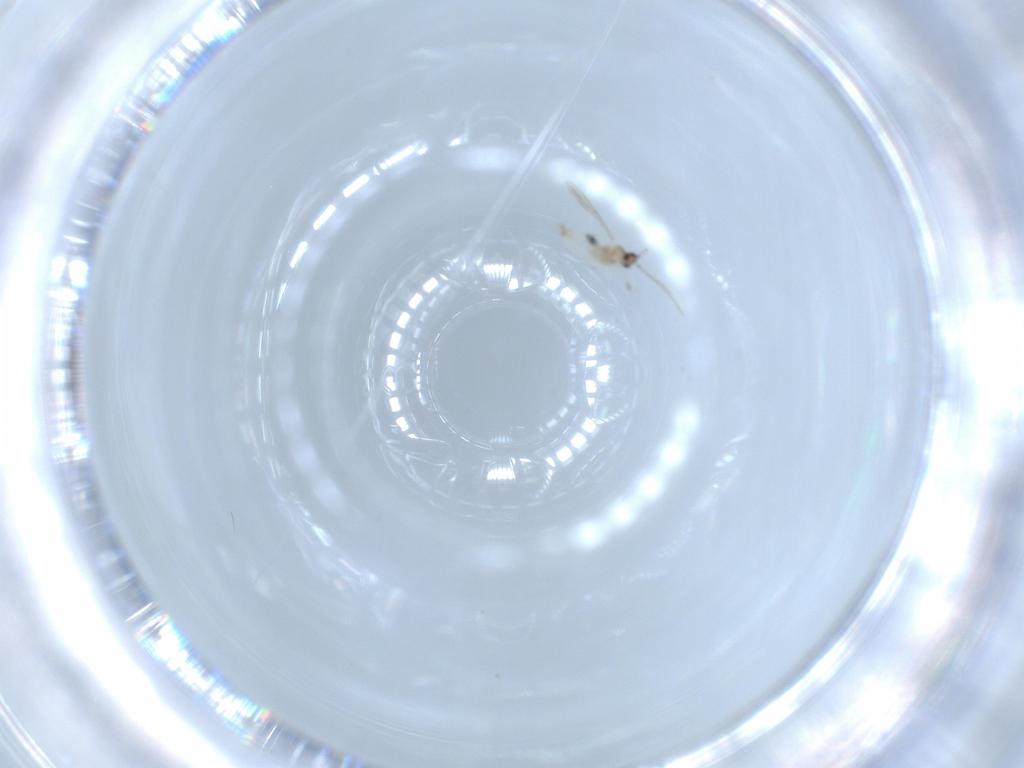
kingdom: Animalia
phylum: Arthropoda
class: Insecta
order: Diptera
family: Cecidomyiidae
